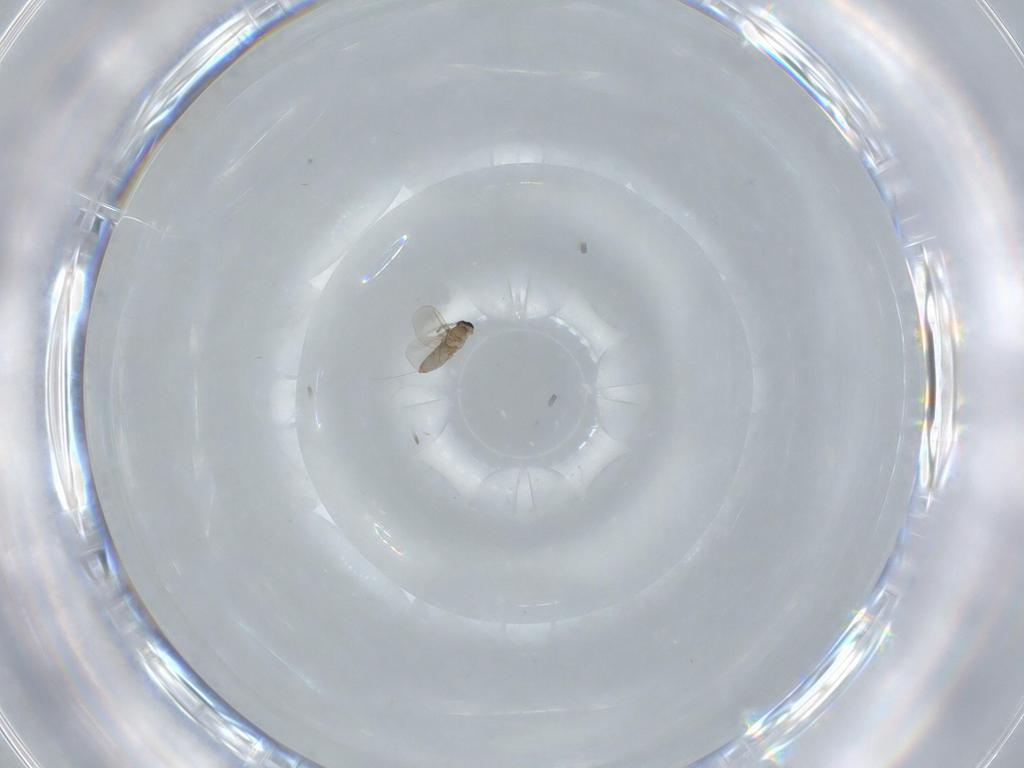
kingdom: Animalia
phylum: Arthropoda
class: Insecta
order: Diptera
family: Cecidomyiidae
